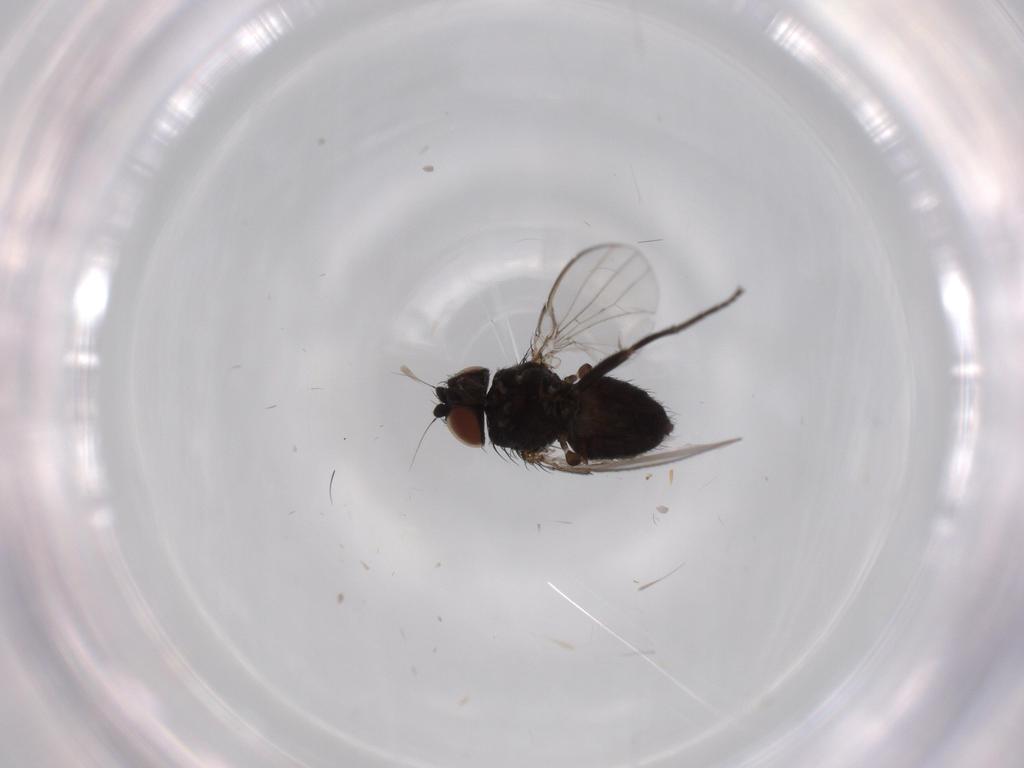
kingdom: Animalia
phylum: Arthropoda
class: Insecta
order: Diptera
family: Milichiidae
